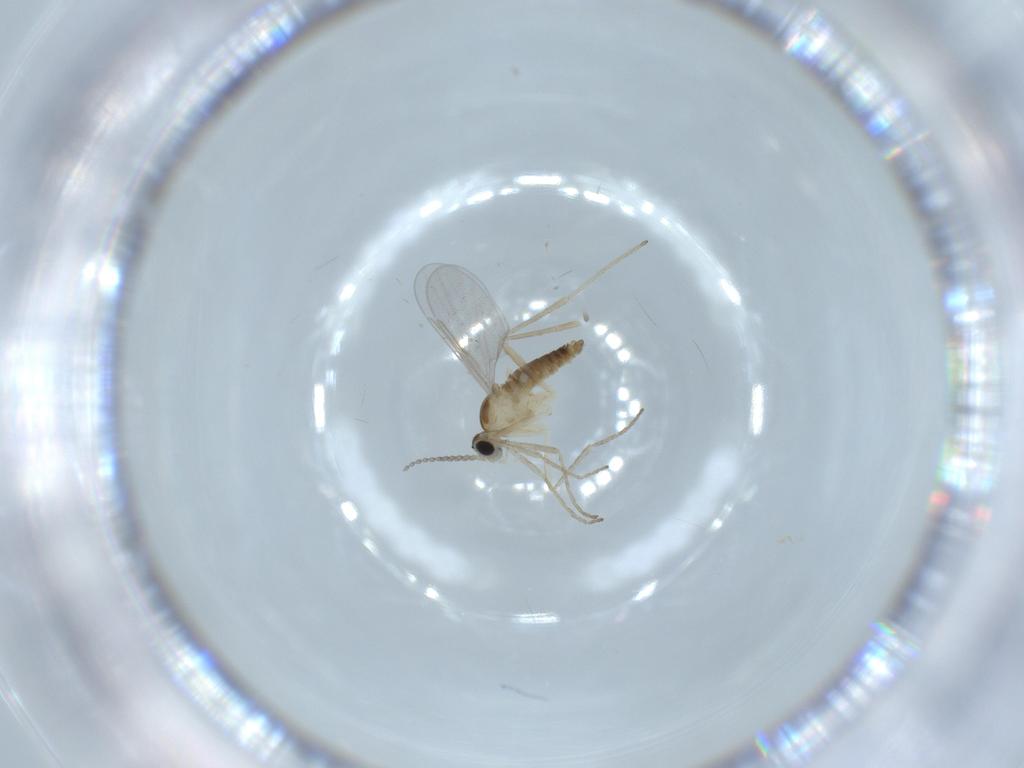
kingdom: Animalia
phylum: Arthropoda
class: Insecta
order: Diptera
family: Cecidomyiidae
